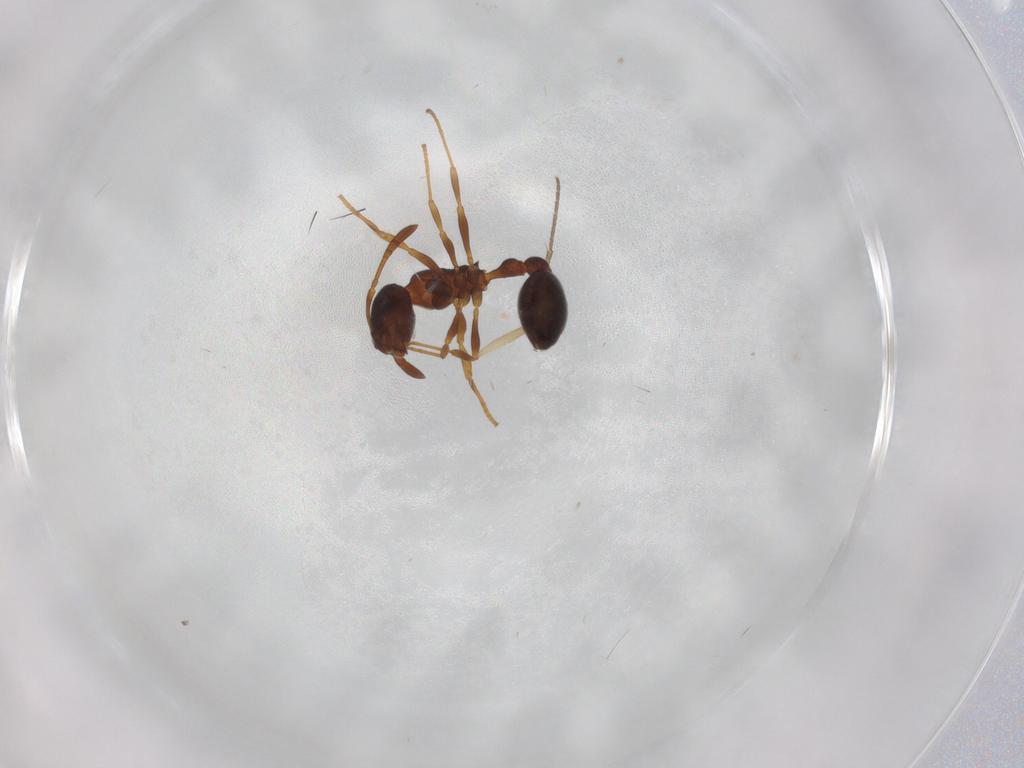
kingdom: Animalia
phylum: Arthropoda
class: Insecta
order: Hymenoptera
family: Formicidae
